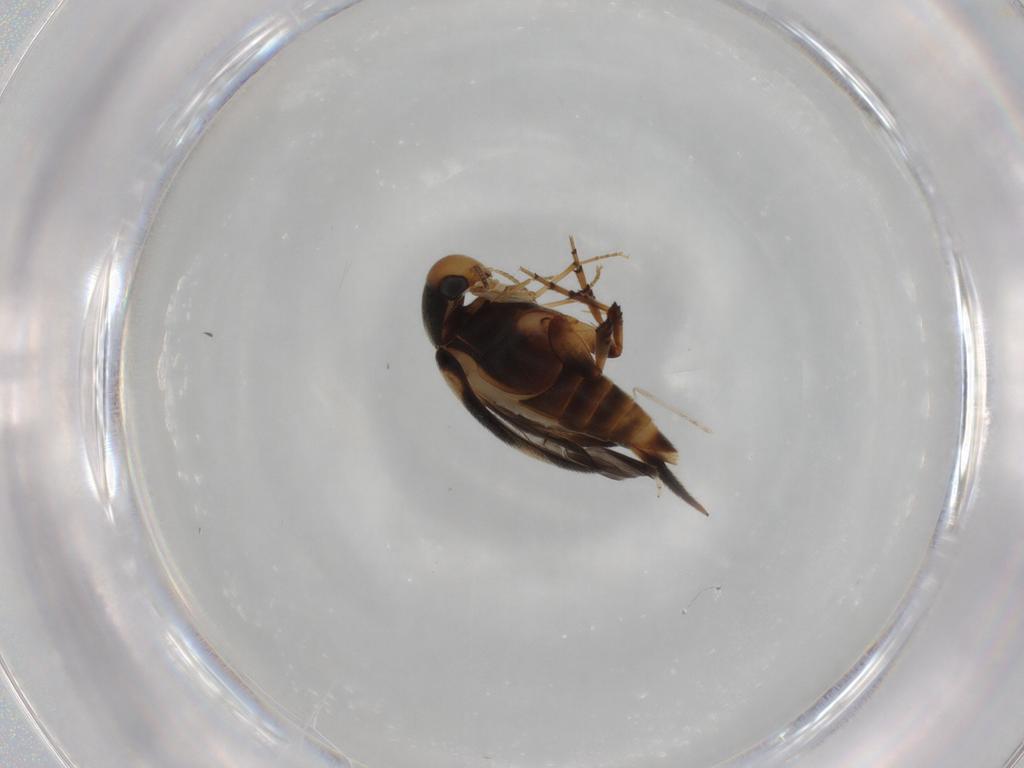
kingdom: Animalia
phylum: Arthropoda
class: Insecta
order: Coleoptera
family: Mordellidae
